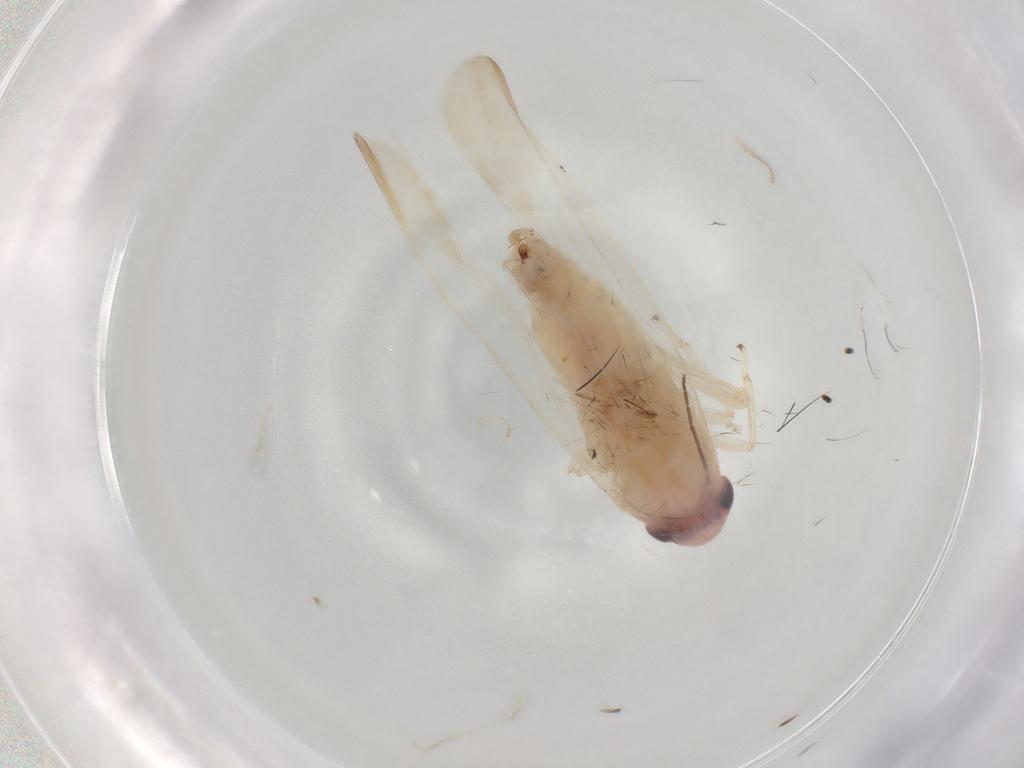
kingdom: Animalia
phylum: Arthropoda
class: Insecta
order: Hemiptera
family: Cicadellidae
